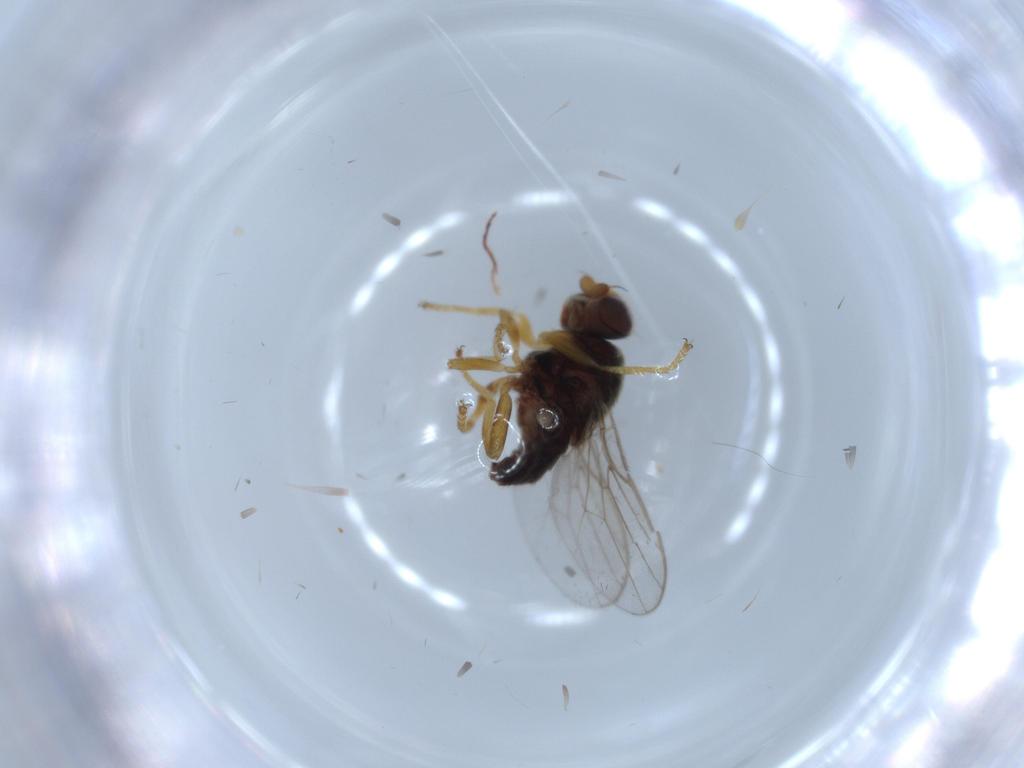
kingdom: Animalia
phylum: Arthropoda
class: Insecta
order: Diptera
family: Chloropidae
